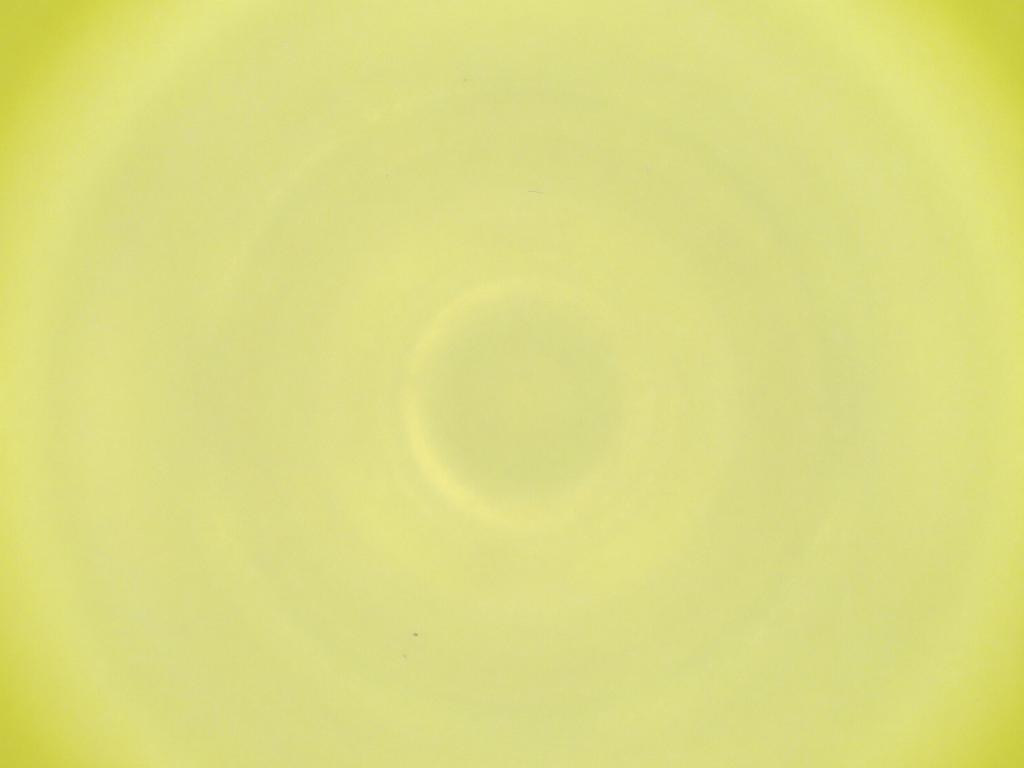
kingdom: Animalia
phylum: Arthropoda
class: Insecta
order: Diptera
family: Cecidomyiidae
